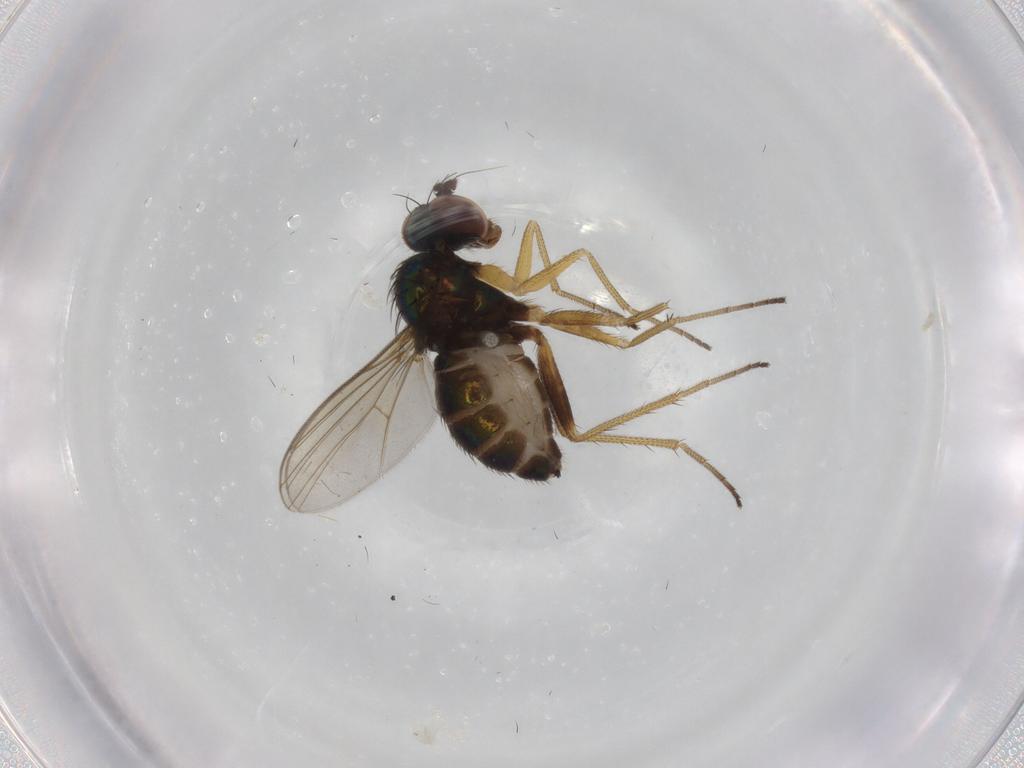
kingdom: Animalia
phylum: Arthropoda
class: Insecta
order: Diptera
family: Dolichopodidae
